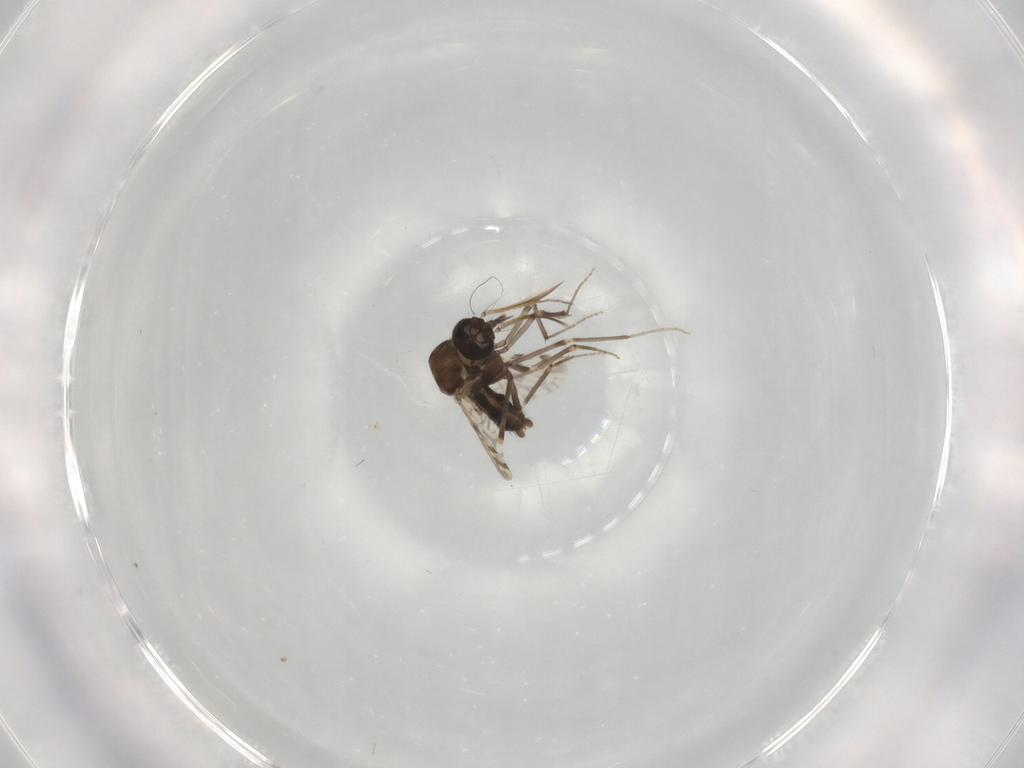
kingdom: Animalia
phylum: Arthropoda
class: Insecta
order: Diptera
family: Ceratopogonidae
